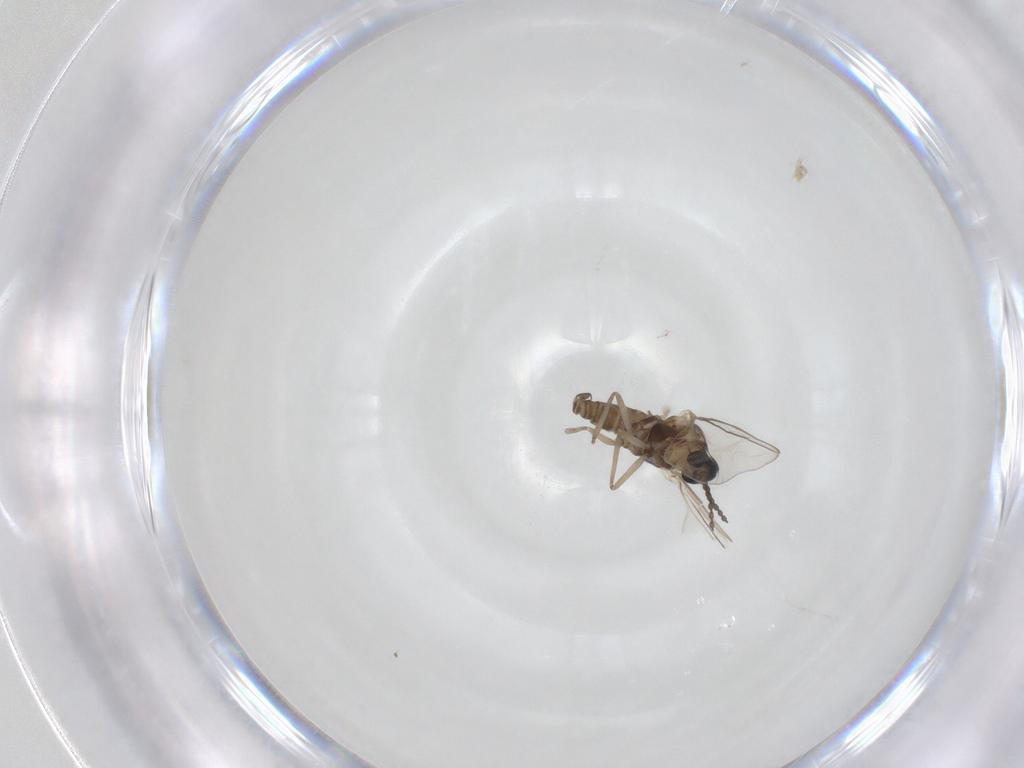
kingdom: Animalia
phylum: Arthropoda
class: Insecta
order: Diptera
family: Cecidomyiidae
